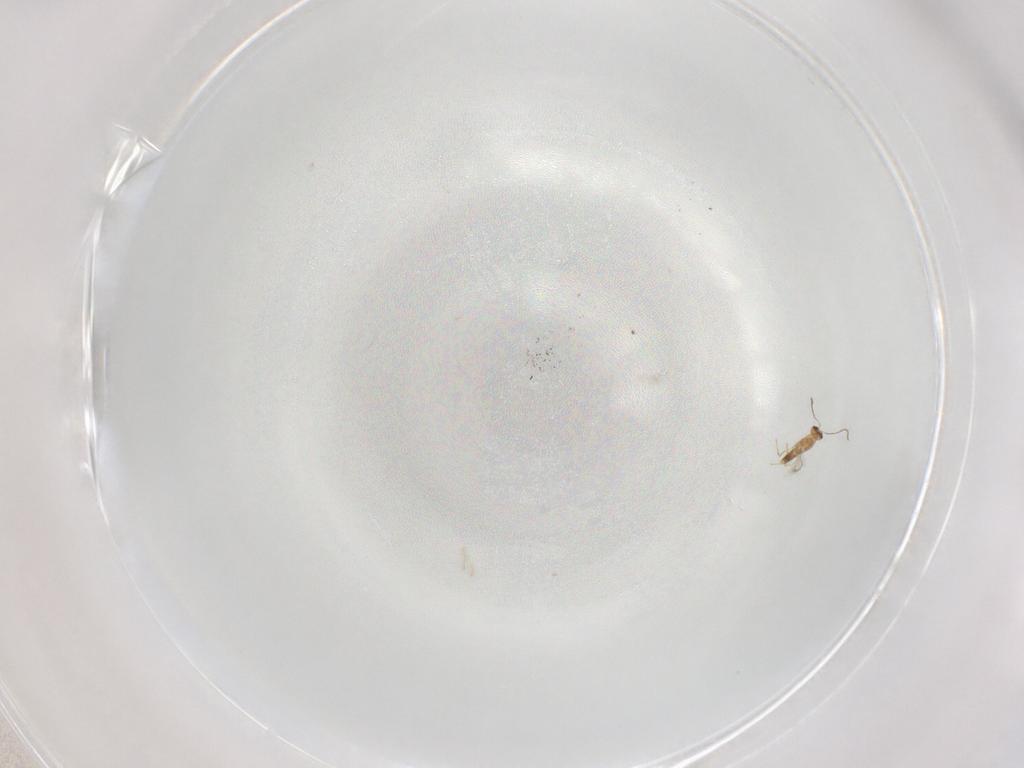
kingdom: Animalia
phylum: Arthropoda
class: Insecta
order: Hymenoptera
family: Mymaridae
